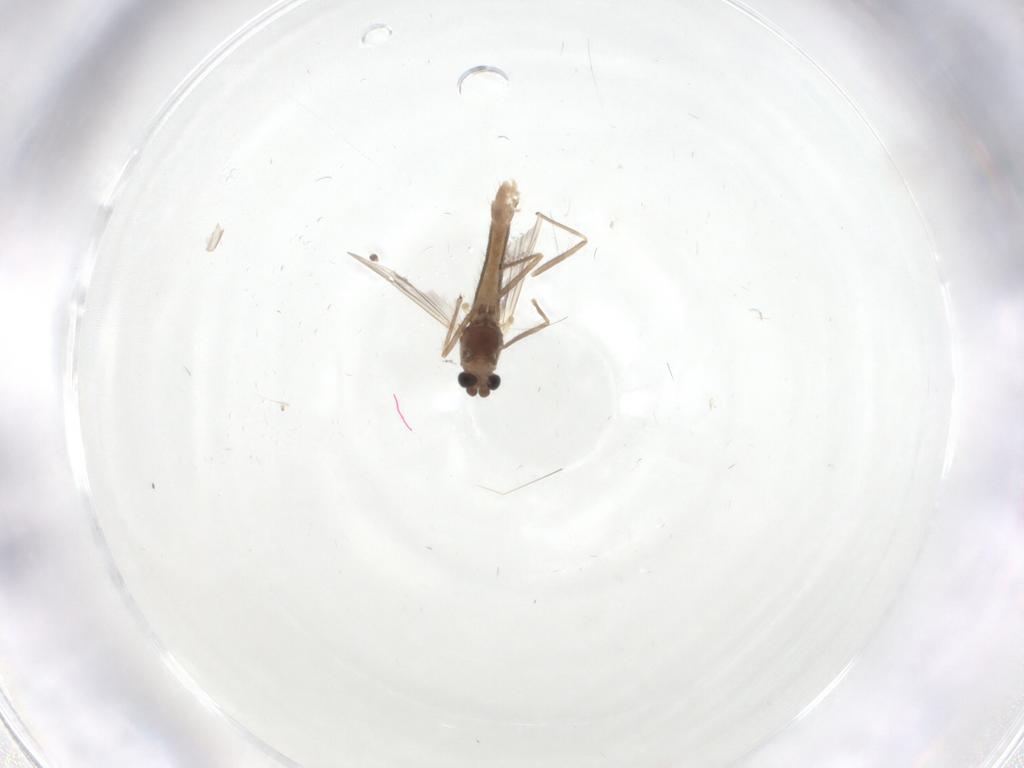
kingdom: Animalia
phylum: Arthropoda
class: Insecta
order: Diptera
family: Chironomidae
